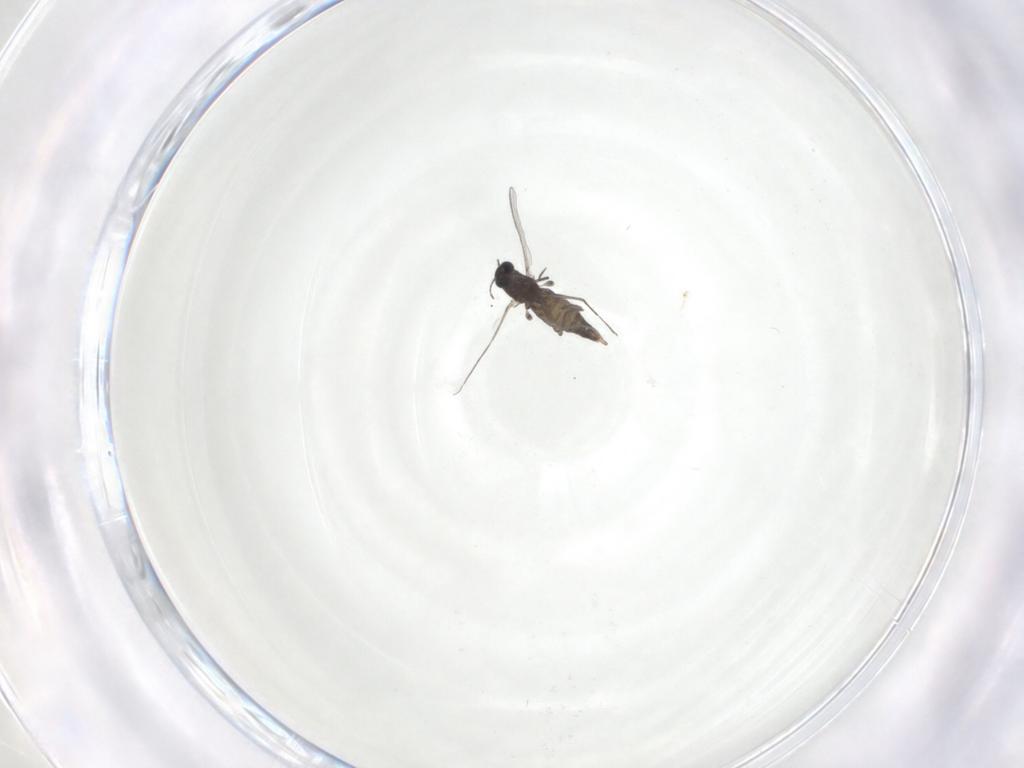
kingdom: Animalia
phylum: Arthropoda
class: Insecta
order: Diptera
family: Chironomidae
